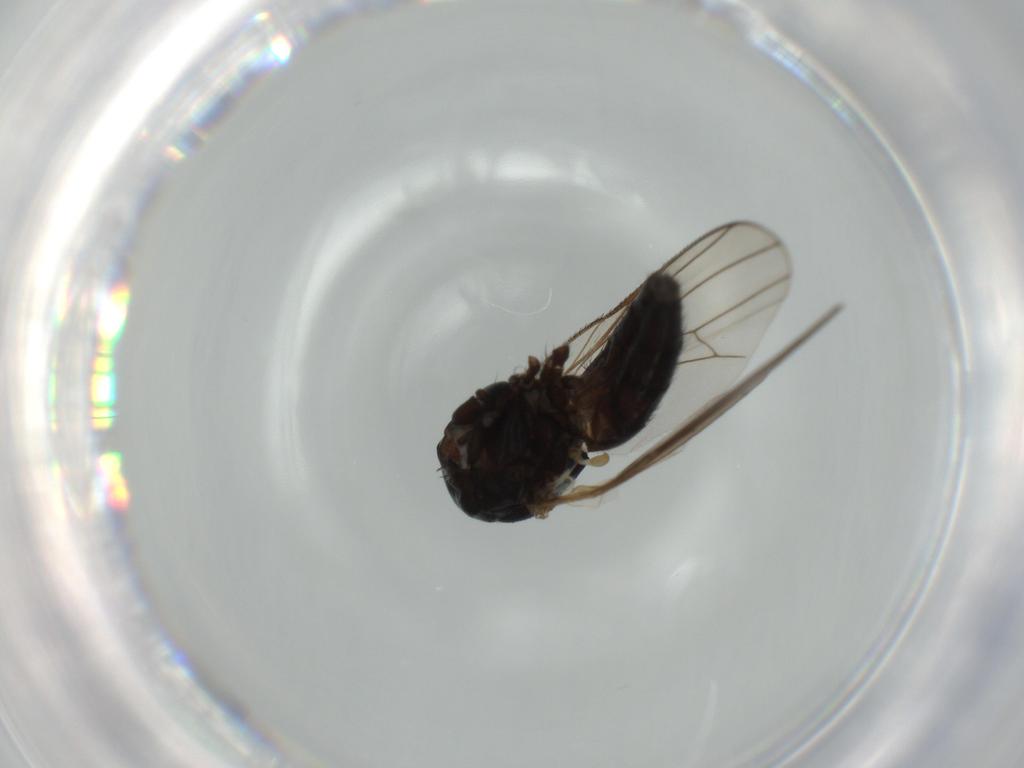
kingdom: Animalia
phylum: Arthropoda
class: Insecta
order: Diptera
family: Fannia
